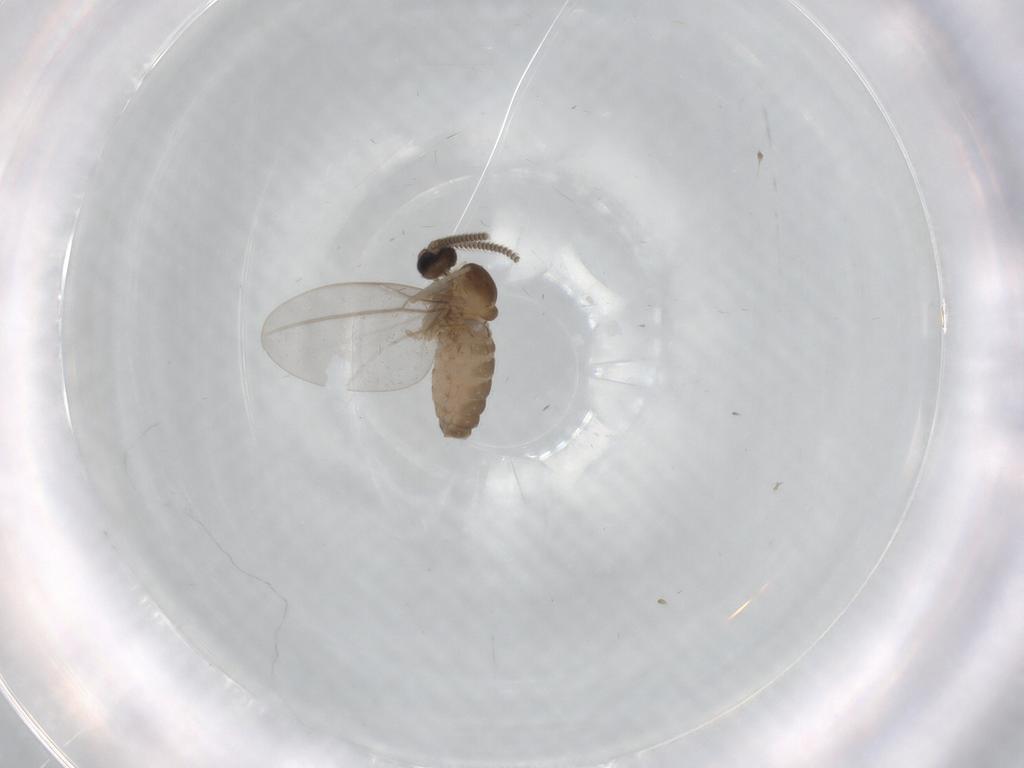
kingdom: Animalia
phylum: Arthropoda
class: Insecta
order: Diptera
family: Cecidomyiidae
